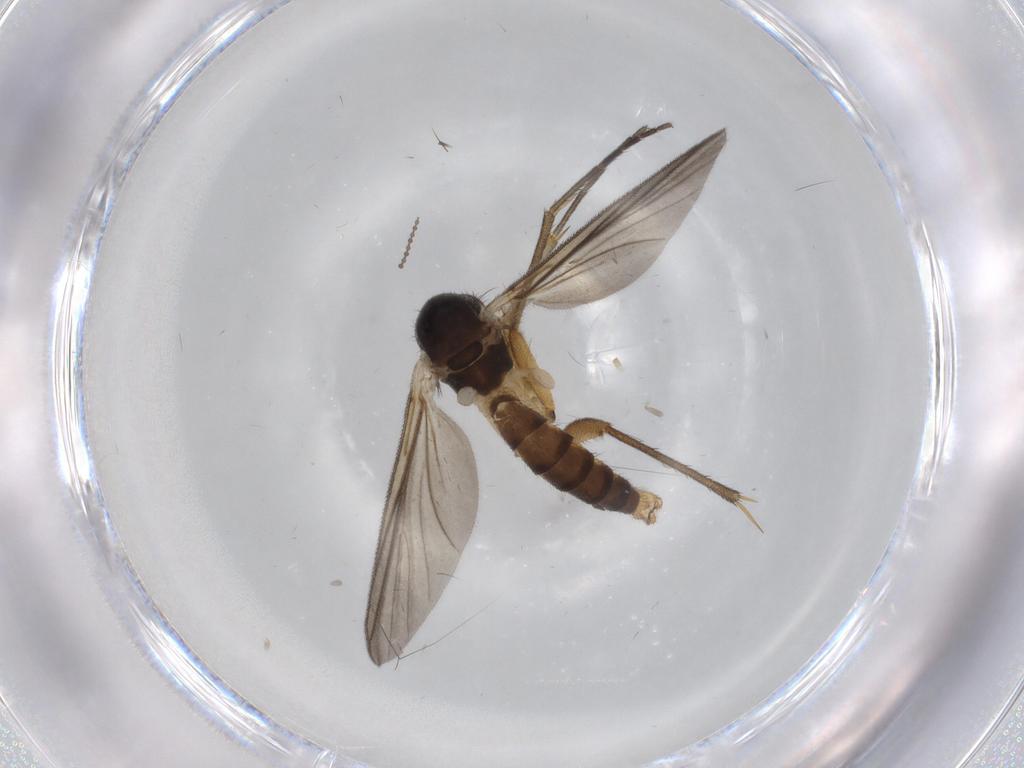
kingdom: Animalia
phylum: Arthropoda
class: Insecta
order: Diptera
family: Mycetophilidae
